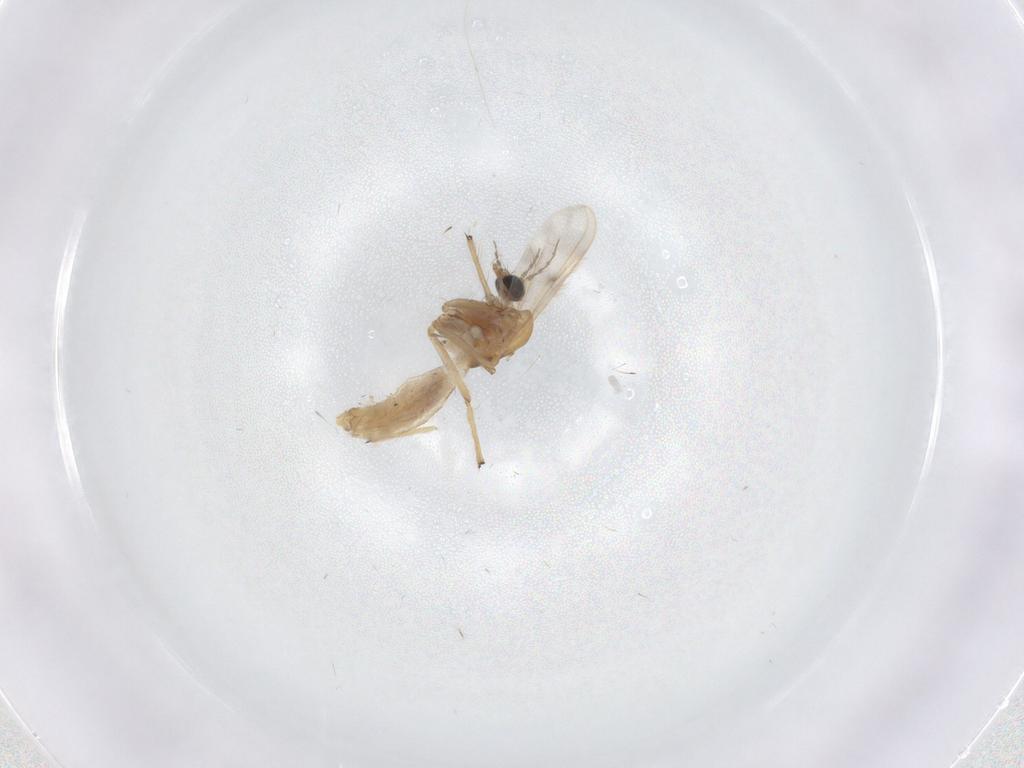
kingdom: Animalia
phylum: Arthropoda
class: Insecta
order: Diptera
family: Chironomidae
